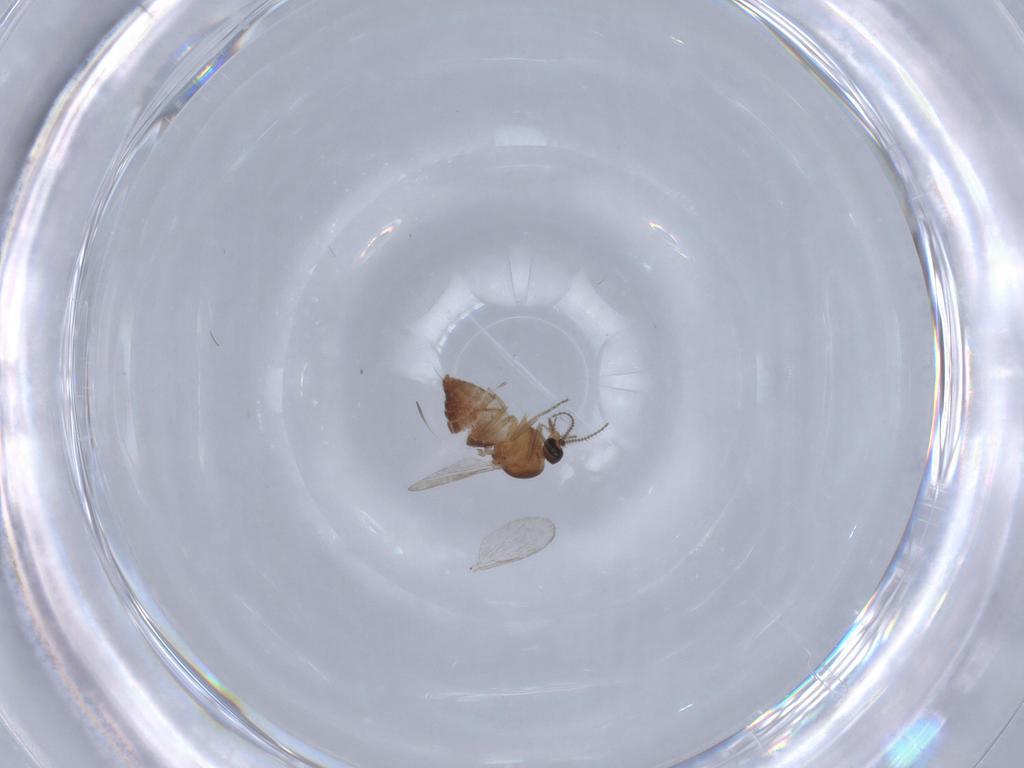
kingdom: Animalia
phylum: Arthropoda
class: Insecta
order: Diptera
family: Ceratopogonidae
